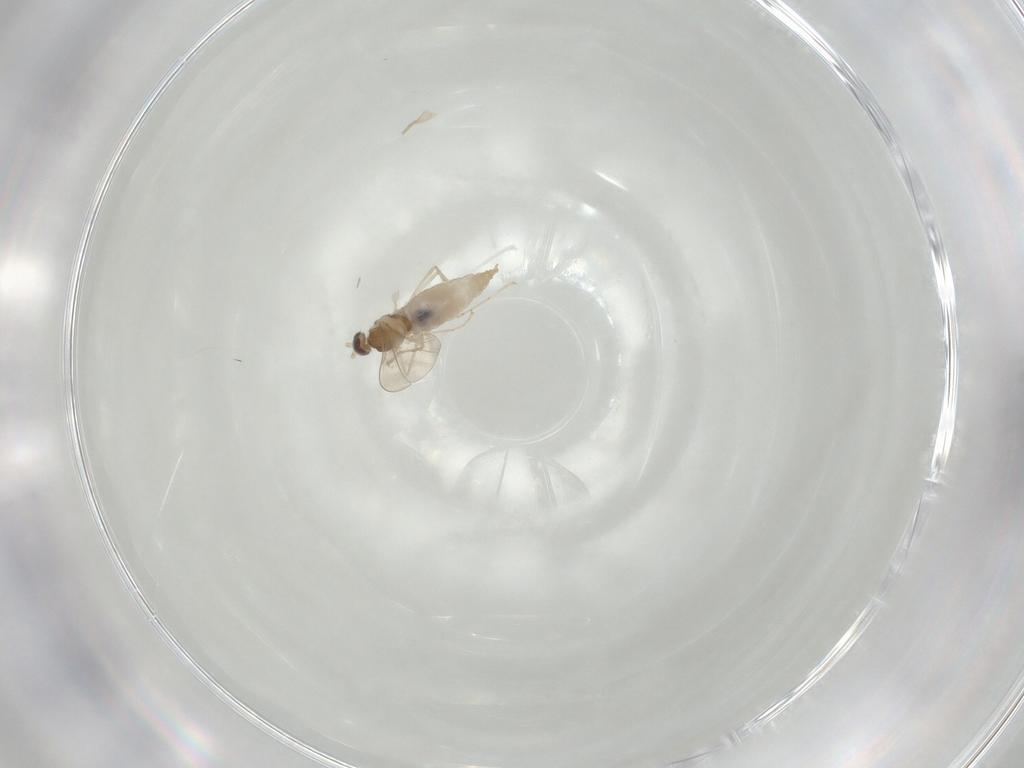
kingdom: Animalia
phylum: Arthropoda
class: Insecta
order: Diptera
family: Cecidomyiidae
